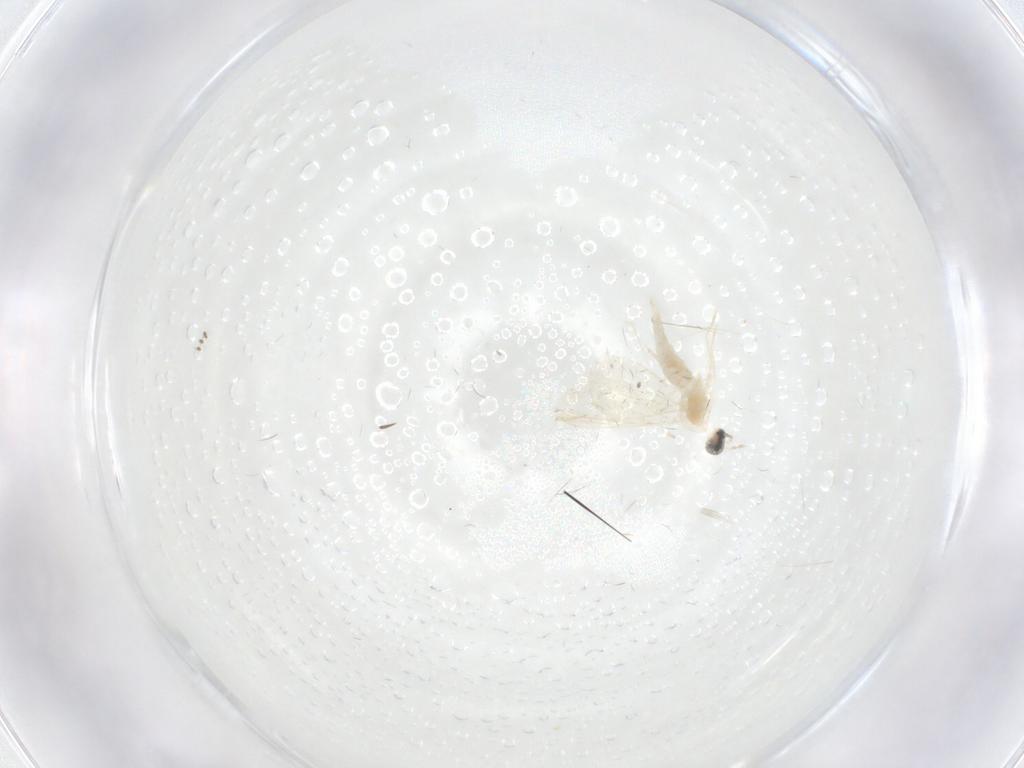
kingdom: Animalia
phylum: Arthropoda
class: Insecta
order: Diptera
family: Cecidomyiidae
